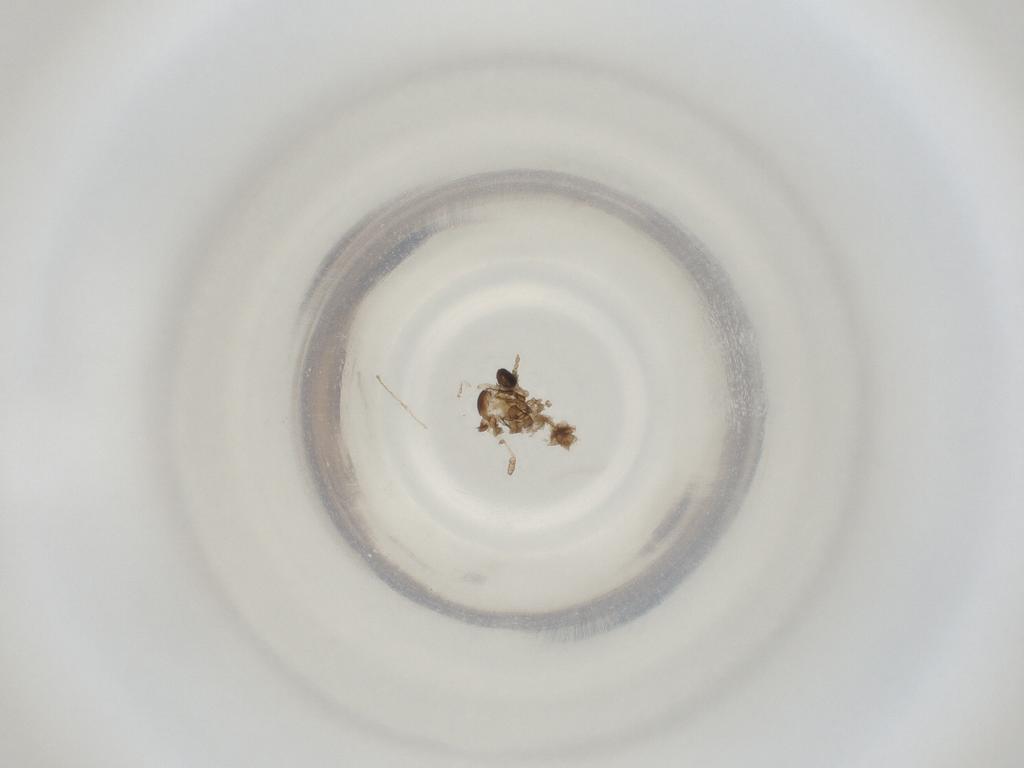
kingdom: Animalia
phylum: Arthropoda
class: Insecta
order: Diptera
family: Cecidomyiidae
